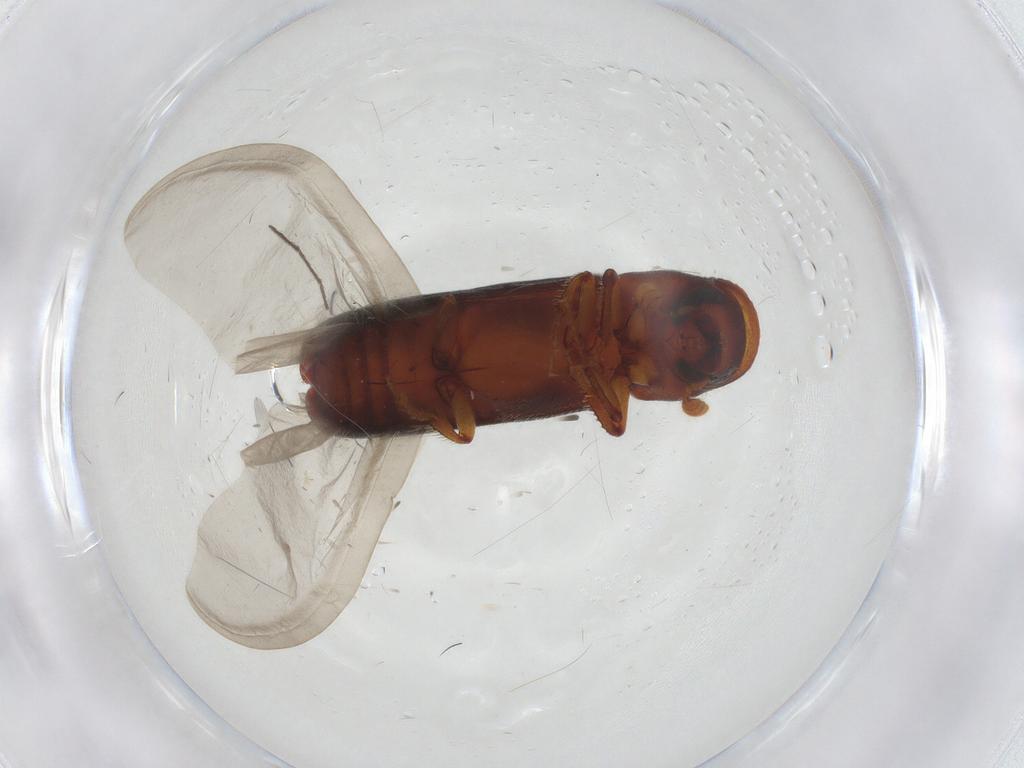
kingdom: Animalia
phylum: Arthropoda
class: Insecta
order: Coleoptera
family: Curculionidae
